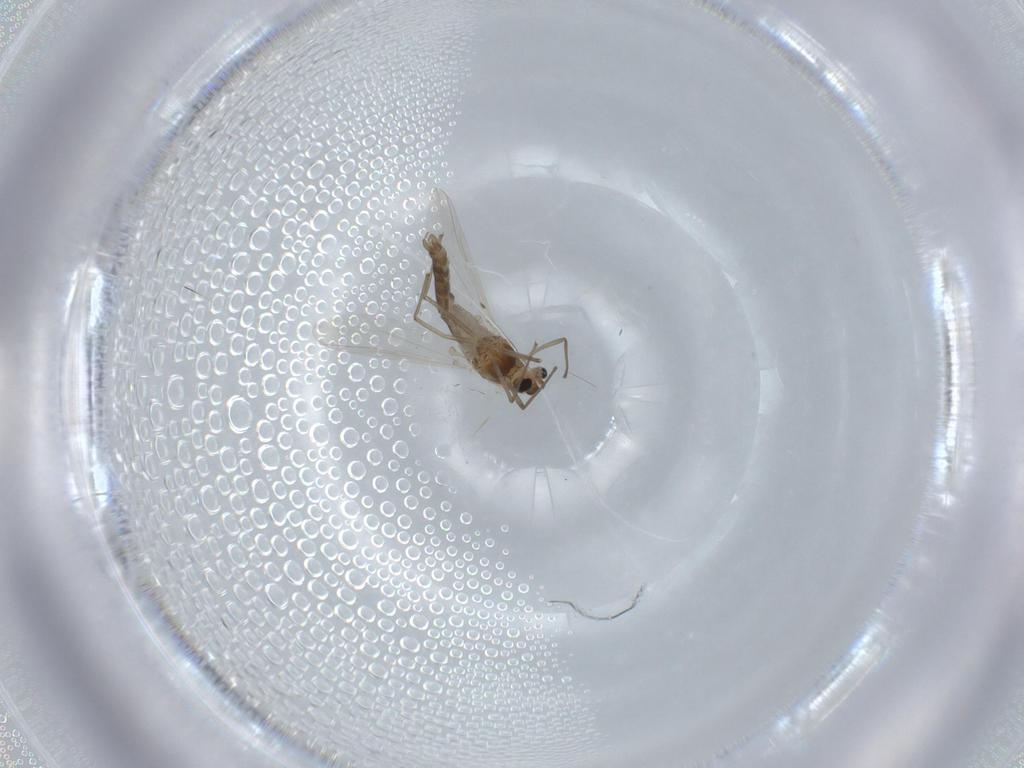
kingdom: Animalia
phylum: Arthropoda
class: Insecta
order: Diptera
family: Chironomidae
